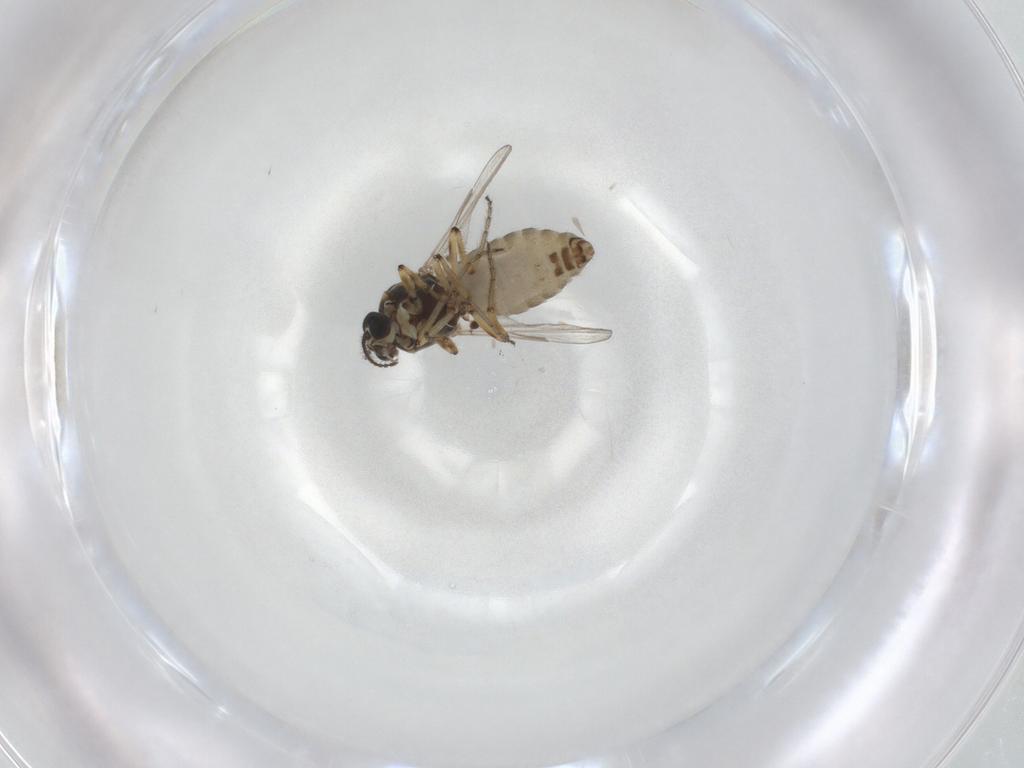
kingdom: Animalia
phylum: Arthropoda
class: Insecta
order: Diptera
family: Ceratopogonidae
